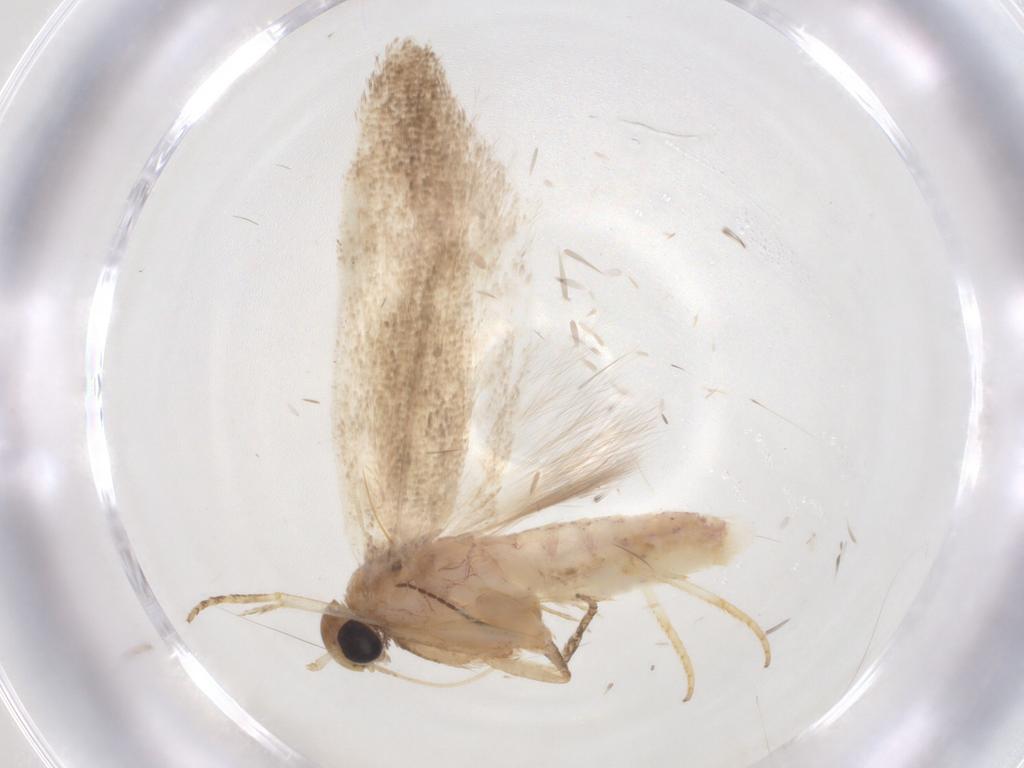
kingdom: Animalia
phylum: Arthropoda
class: Insecta
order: Lepidoptera
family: Gelechiidae
